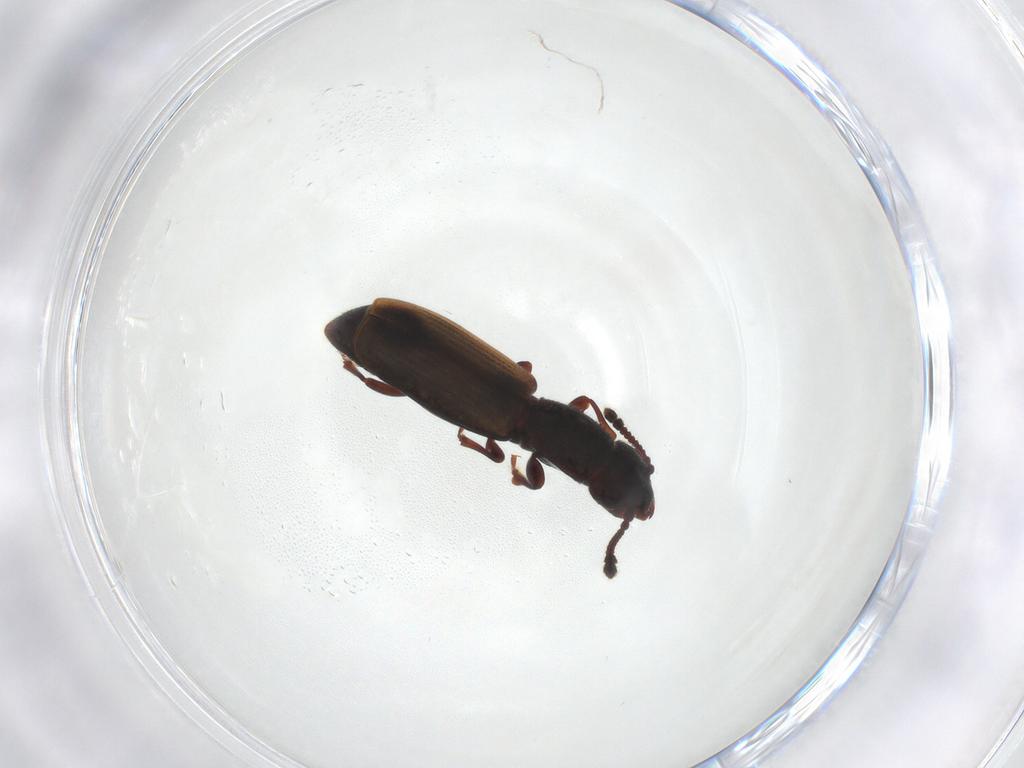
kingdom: Animalia
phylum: Arthropoda
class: Insecta
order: Coleoptera
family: Monotomidae
